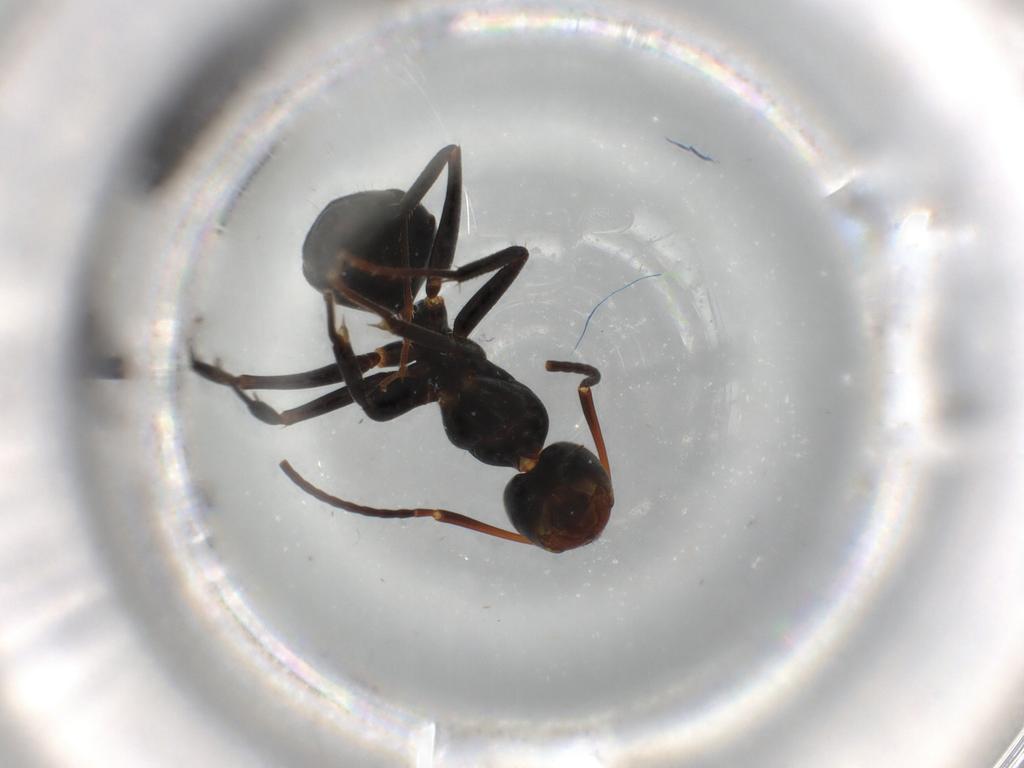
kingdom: Animalia
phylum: Arthropoda
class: Insecta
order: Hymenoptera
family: Formicidae
